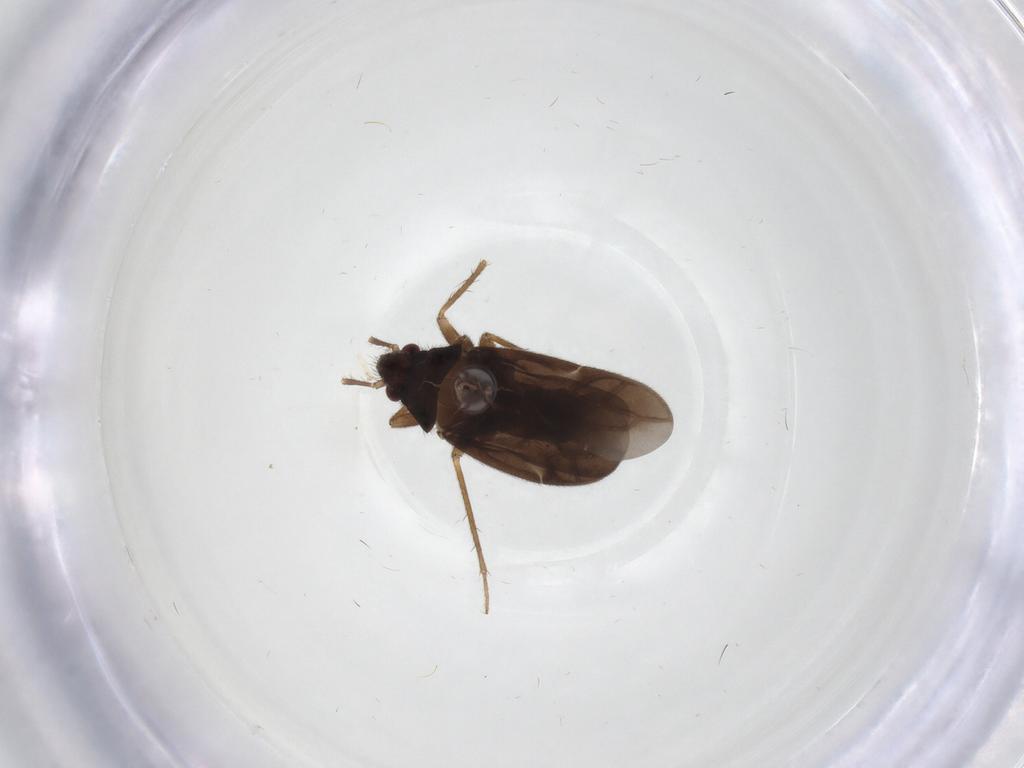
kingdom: Animalia
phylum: Arthropoda
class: Insecta
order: Hemiptera
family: Ceratocombidae
